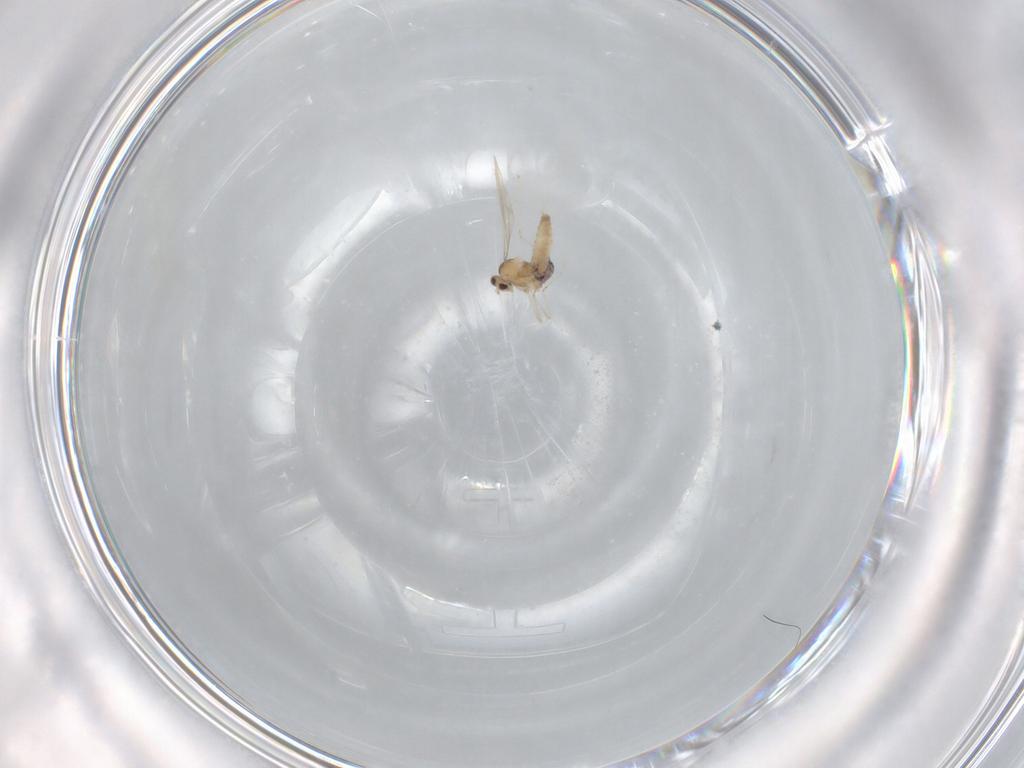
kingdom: Animalia
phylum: Arthropoda
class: Insecta
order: Diptera
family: Cecidomyiidae
